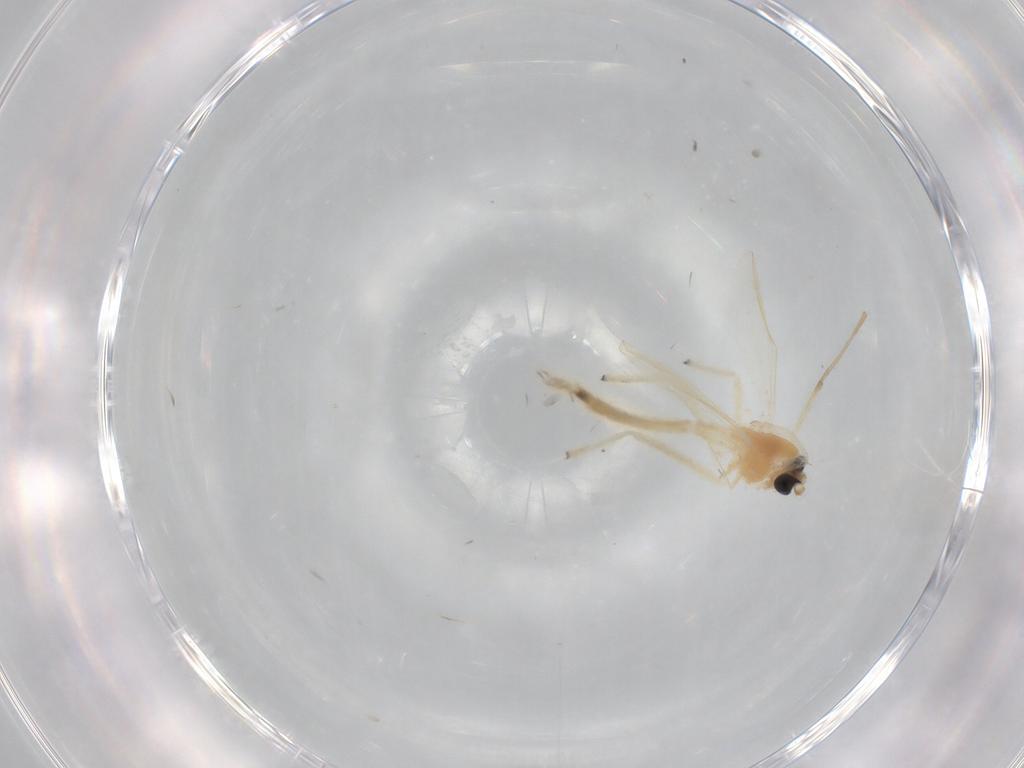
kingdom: Animalia
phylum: Arthropoda
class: Insecta
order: Diptera
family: Chironomidae
